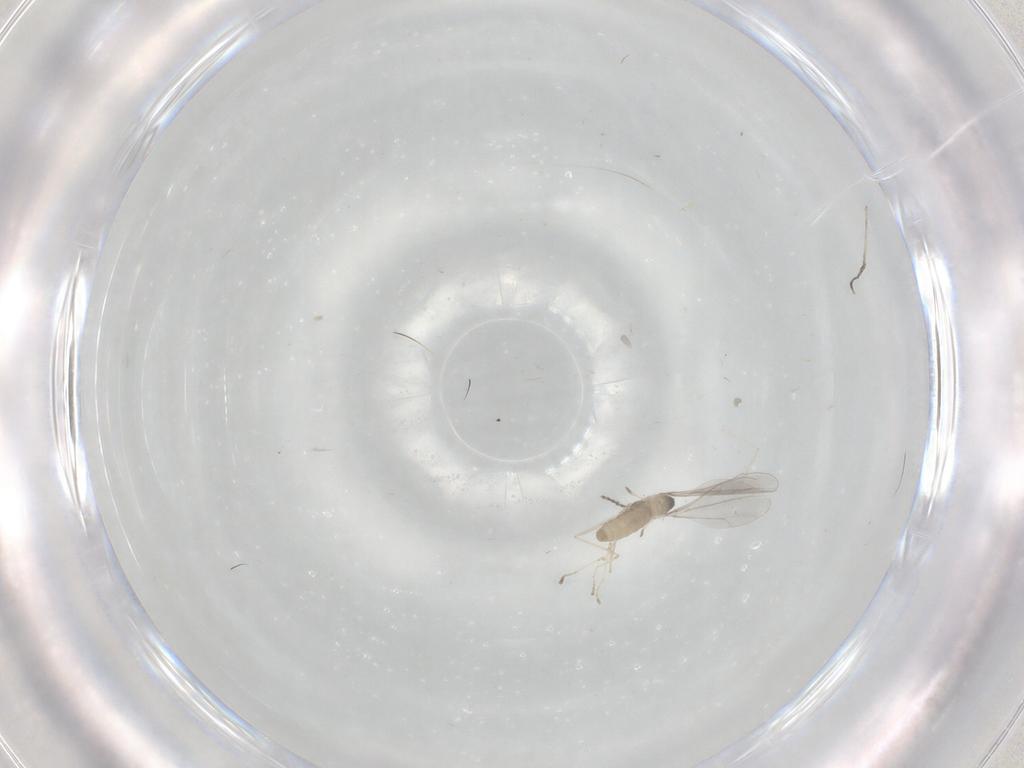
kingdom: Animalia
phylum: Arthropoda
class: Insecta
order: Diptera
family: Cecidomyiidae
